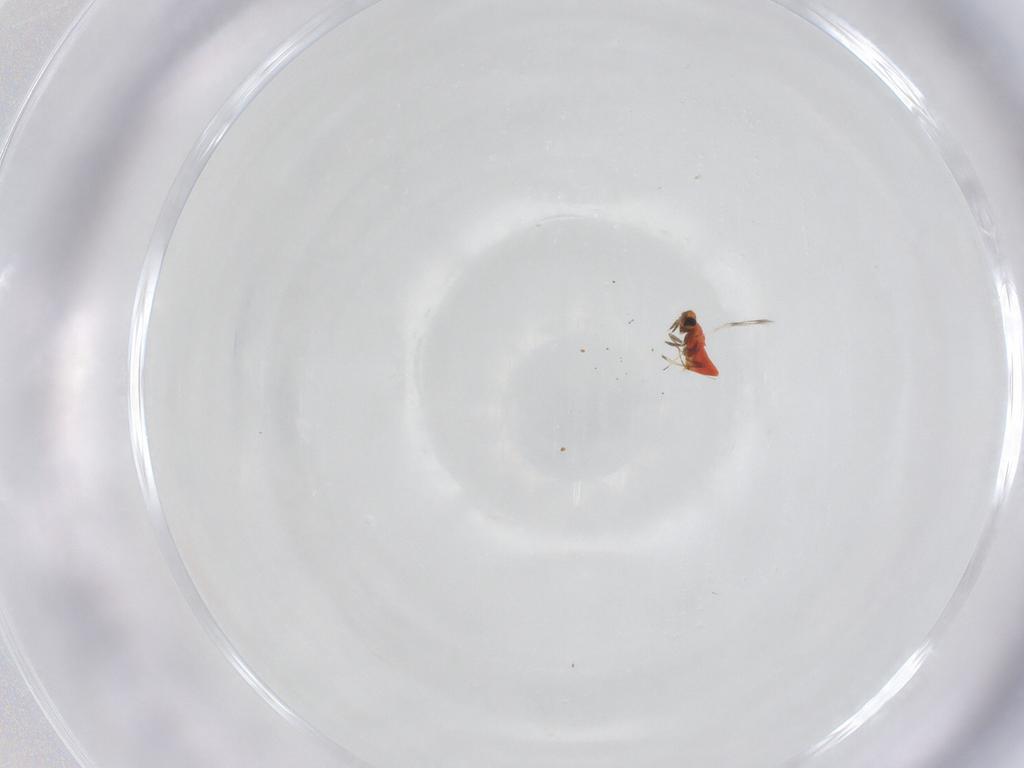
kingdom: Animalia
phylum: Arthropoda
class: Insecta
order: Hymenoptera
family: Trichogrammatidae
